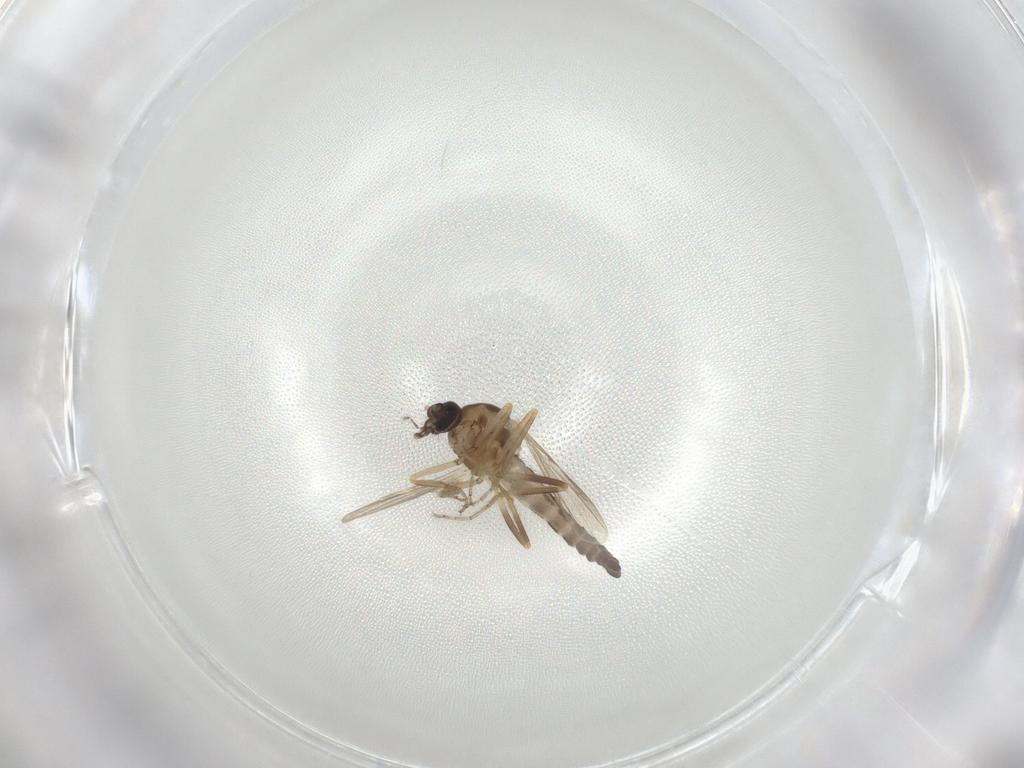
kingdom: Animalia
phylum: Arthropoda
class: Insecta
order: Diptera
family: Ceratopogonidae
